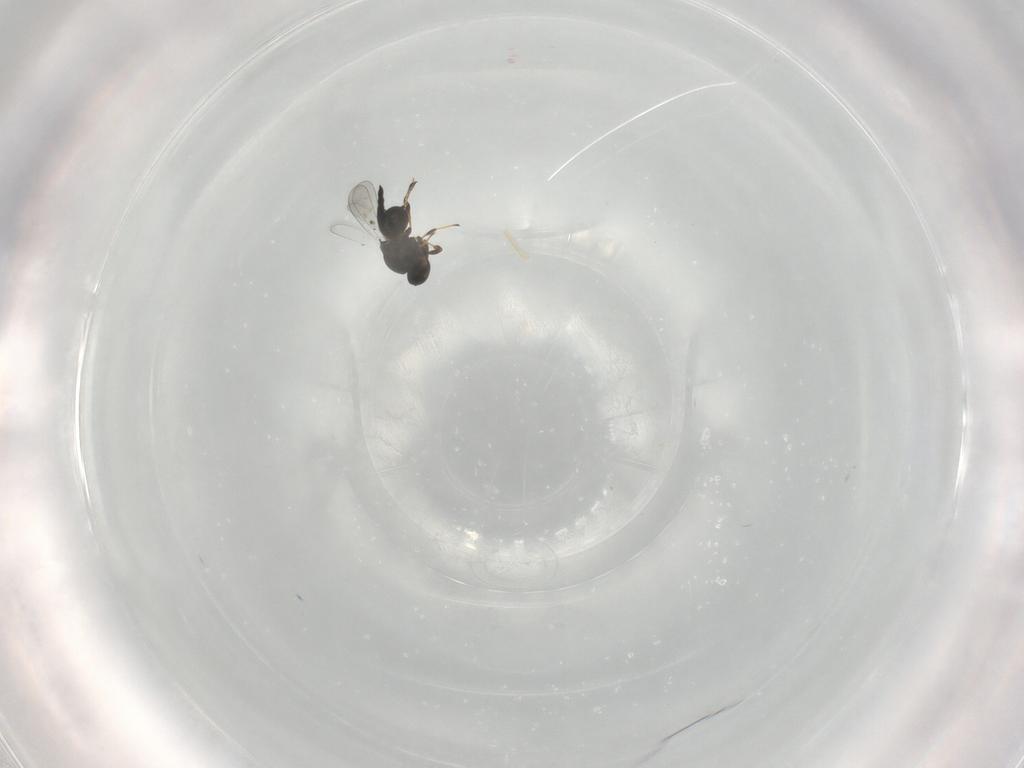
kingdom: Animalia
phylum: Arthropoda
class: Insecta
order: Hymenoptera
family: Platygastridae
